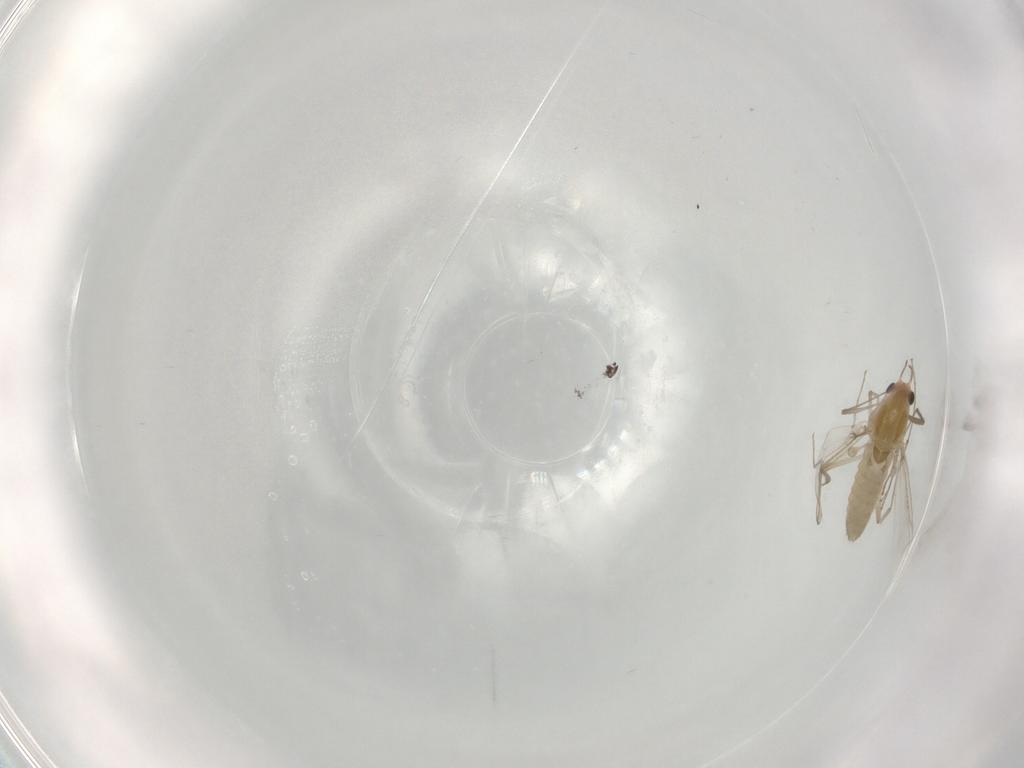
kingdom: Animalia
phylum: Arthropoda
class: Insecta
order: Diptera
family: Chironomidae
